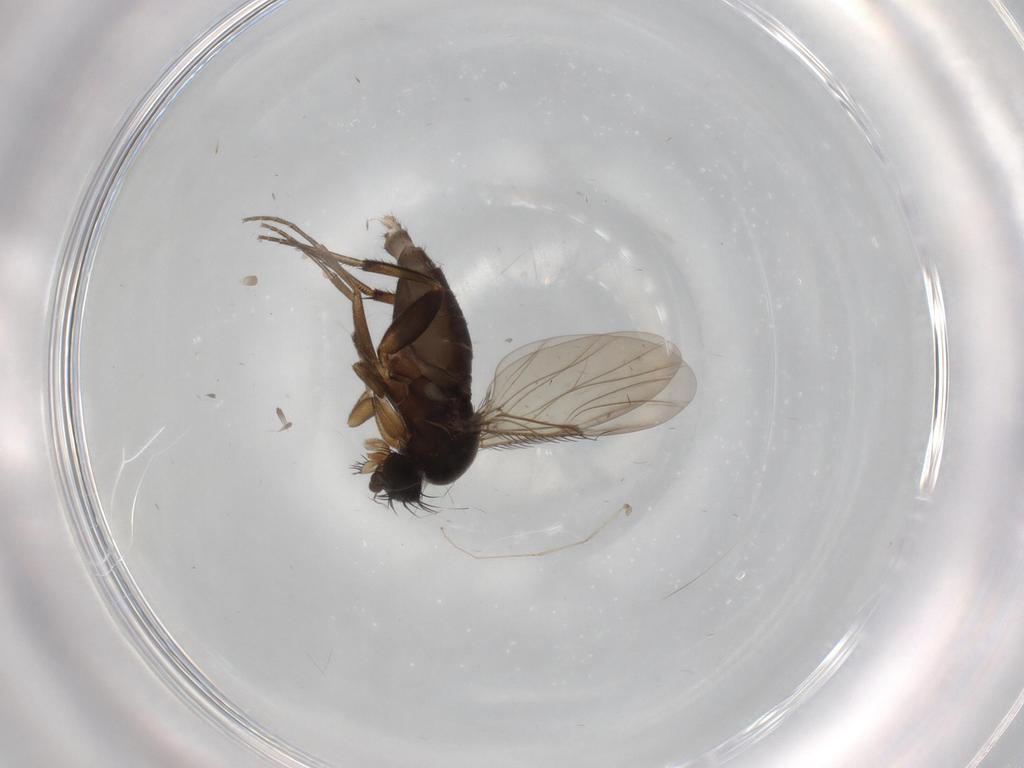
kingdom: Animalia
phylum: Arthropoda
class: Insecta
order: Diptera
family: Phoridae
